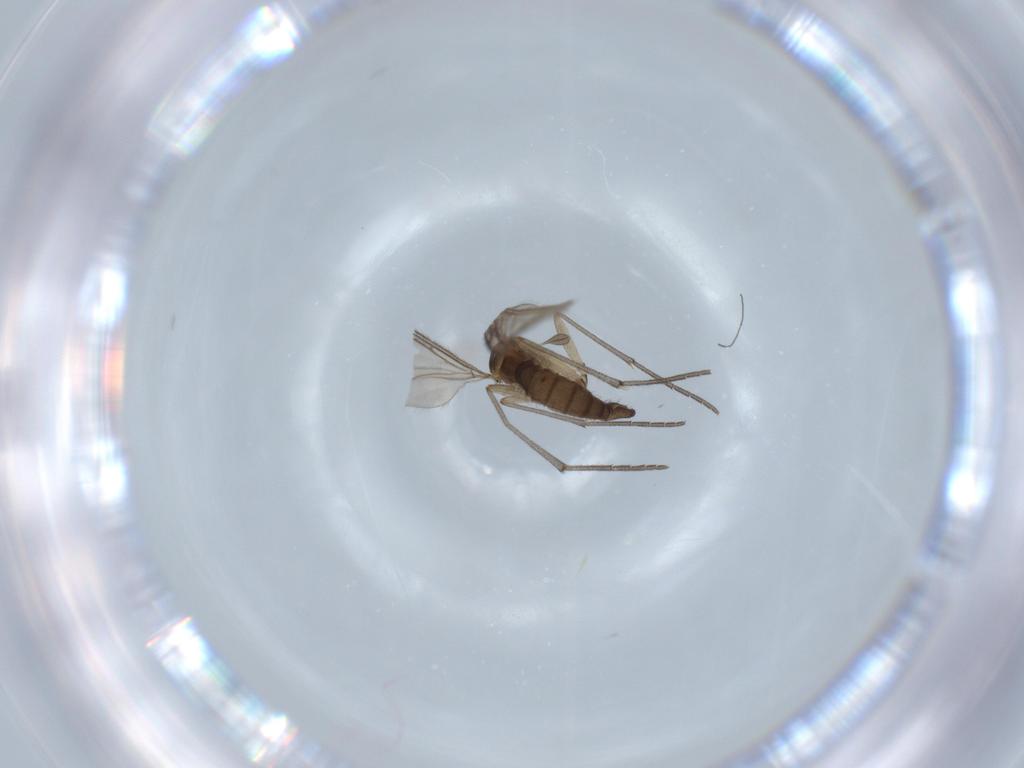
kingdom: Animalia
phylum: Arthropoda
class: Insecta
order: Diptera
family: Sciaridae
